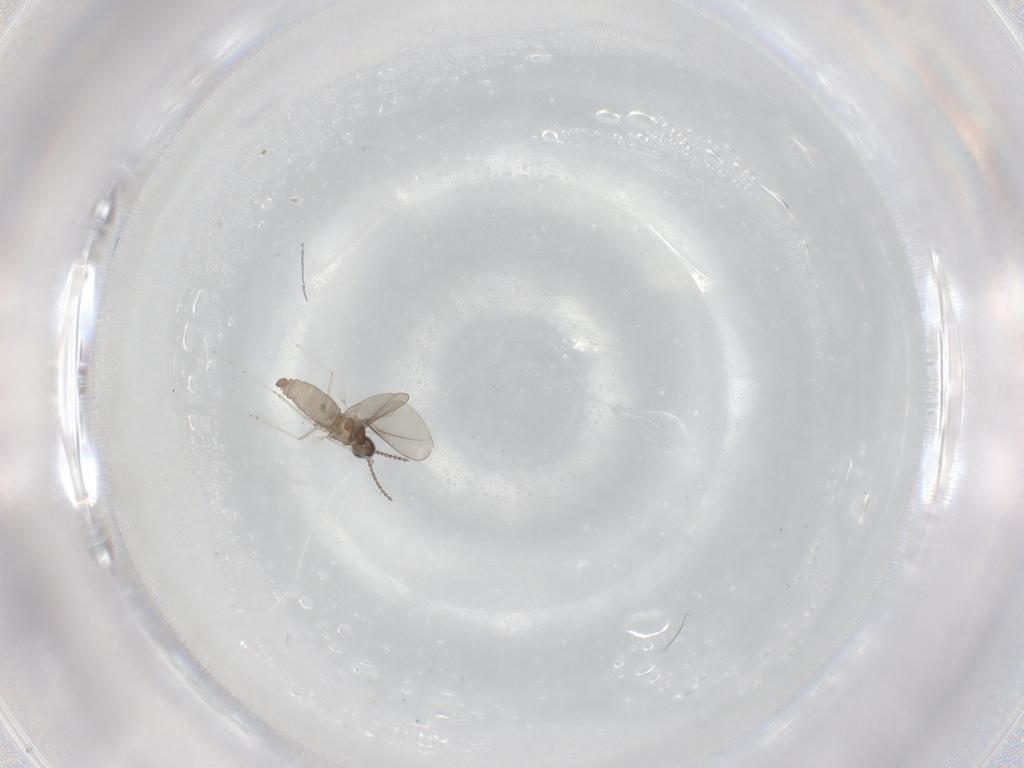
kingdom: Animalia
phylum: Arthropoda
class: Insecta
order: Diptera
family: Cecidomyiidae
